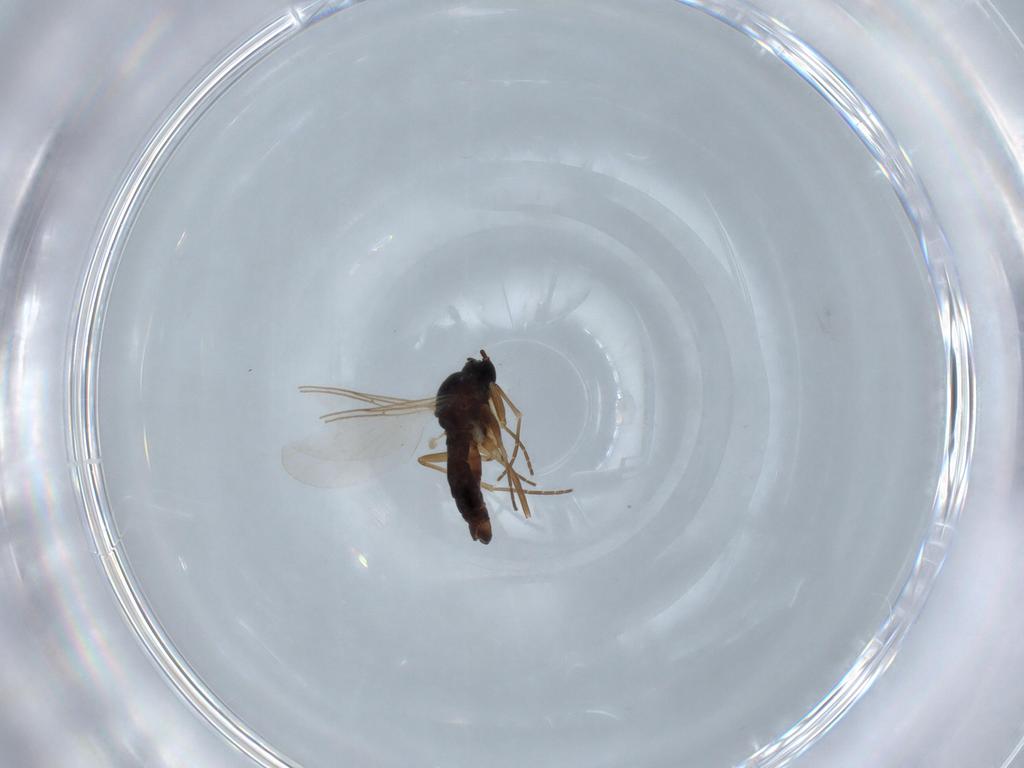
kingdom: Animalia
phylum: Arthropoda
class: Insecta
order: Diptera
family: Sciaridae
